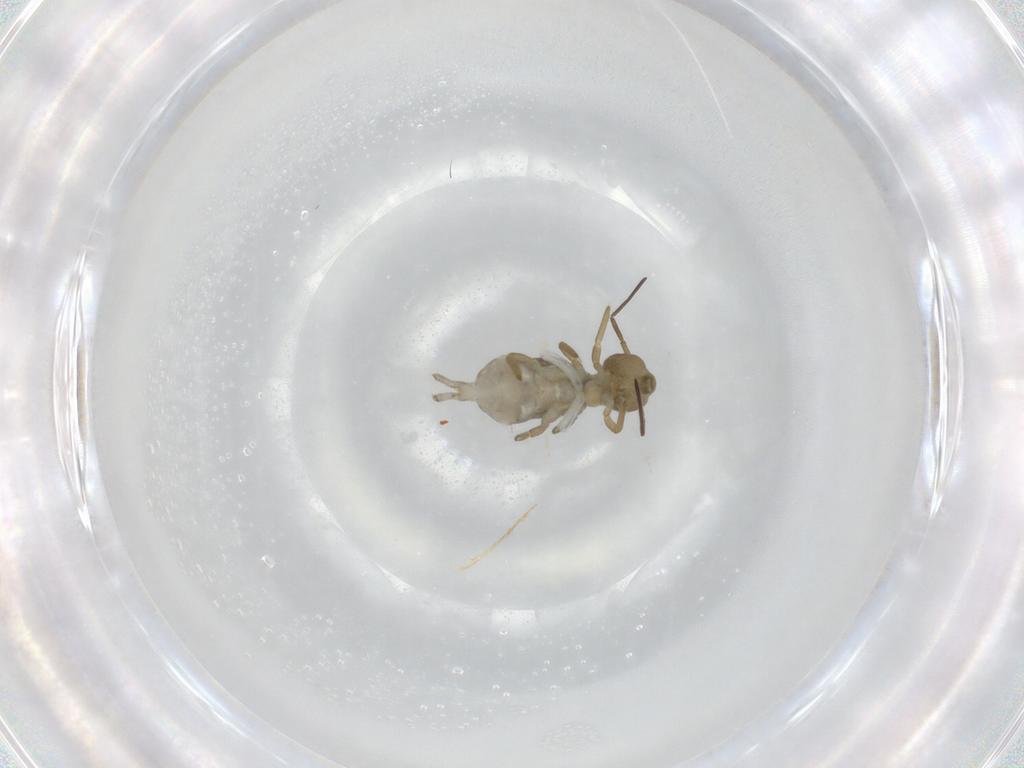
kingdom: Animalia
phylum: Arthropoda
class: Collembola
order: Symphypleona
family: Sminthuridae
